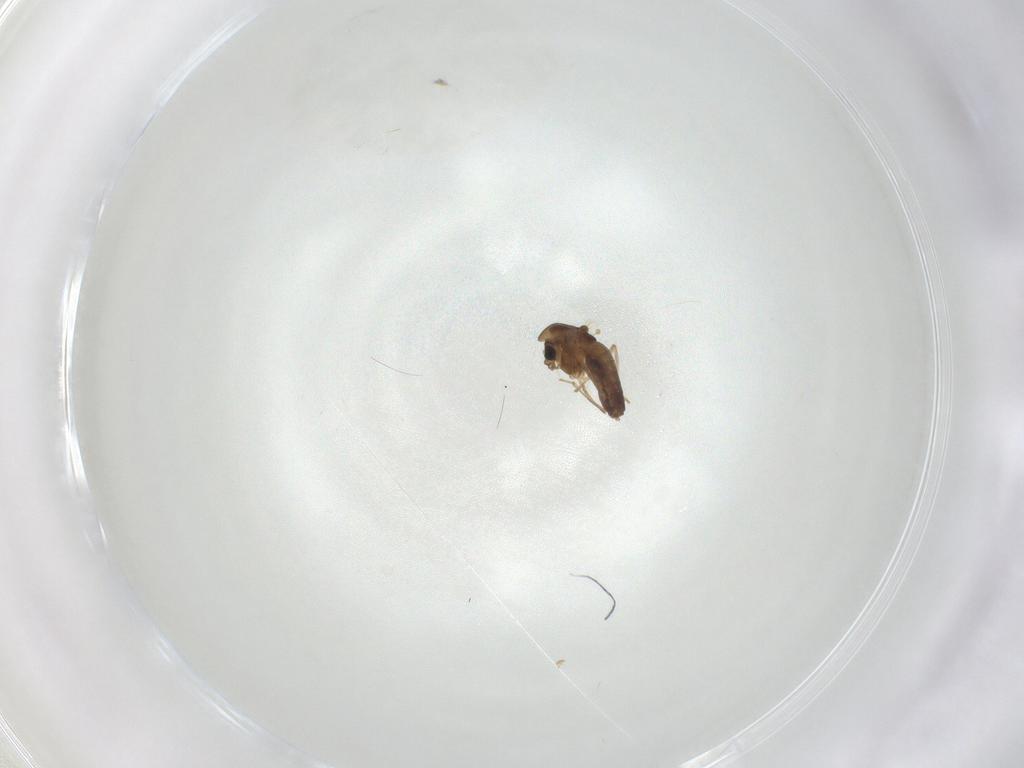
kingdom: Animalia
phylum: Arthropoda
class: Insecta
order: Diptera
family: Chironomidae
